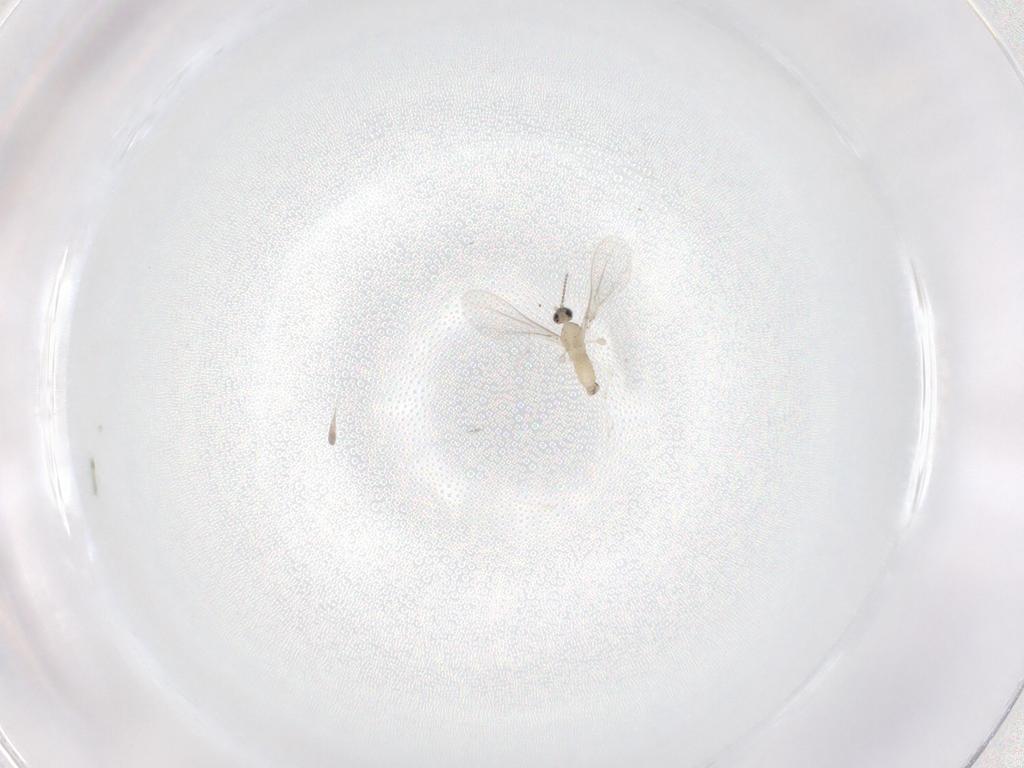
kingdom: Animalia
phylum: Arthropoda
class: Insecta
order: Diptera
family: Cecidomyiidae
